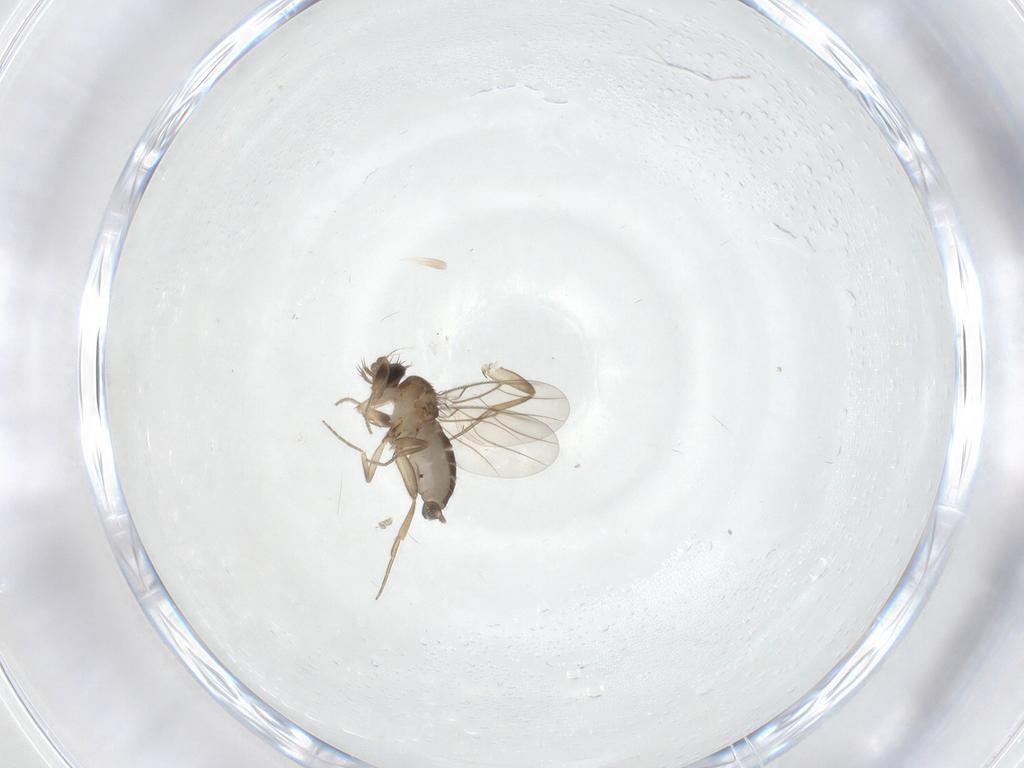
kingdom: Animalia
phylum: Arthropoda
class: Insecta
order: Diptera
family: Phoridae
